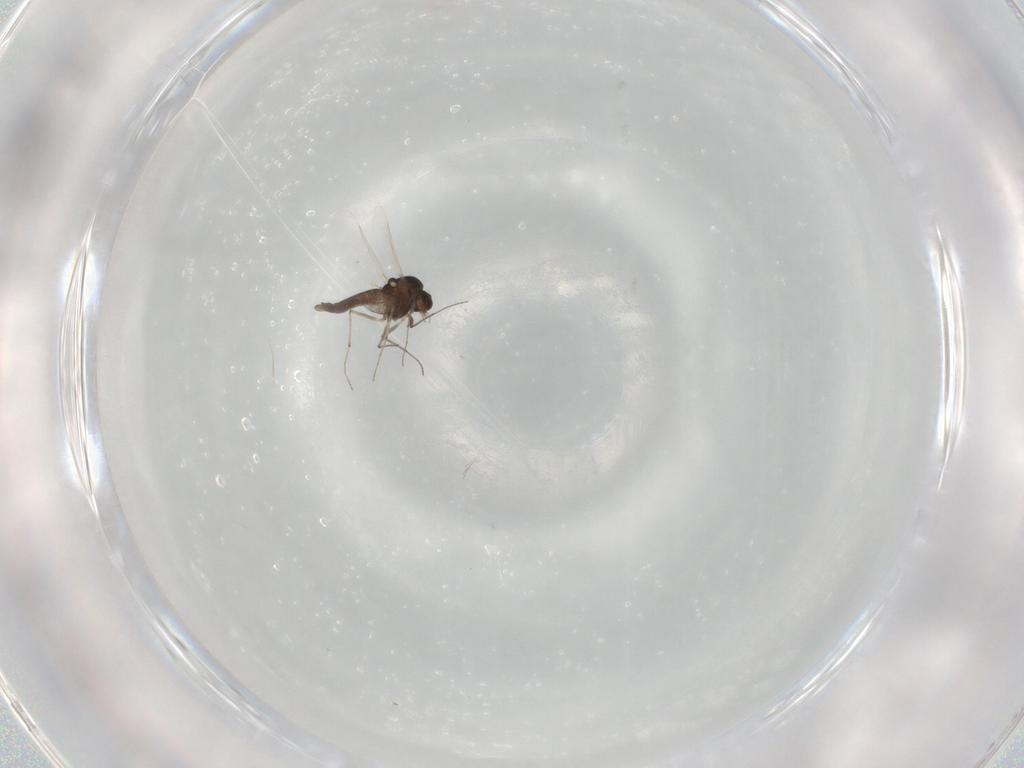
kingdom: Animalia
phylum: Arthropoda
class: Insecta
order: Diptera
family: Chironomidae
